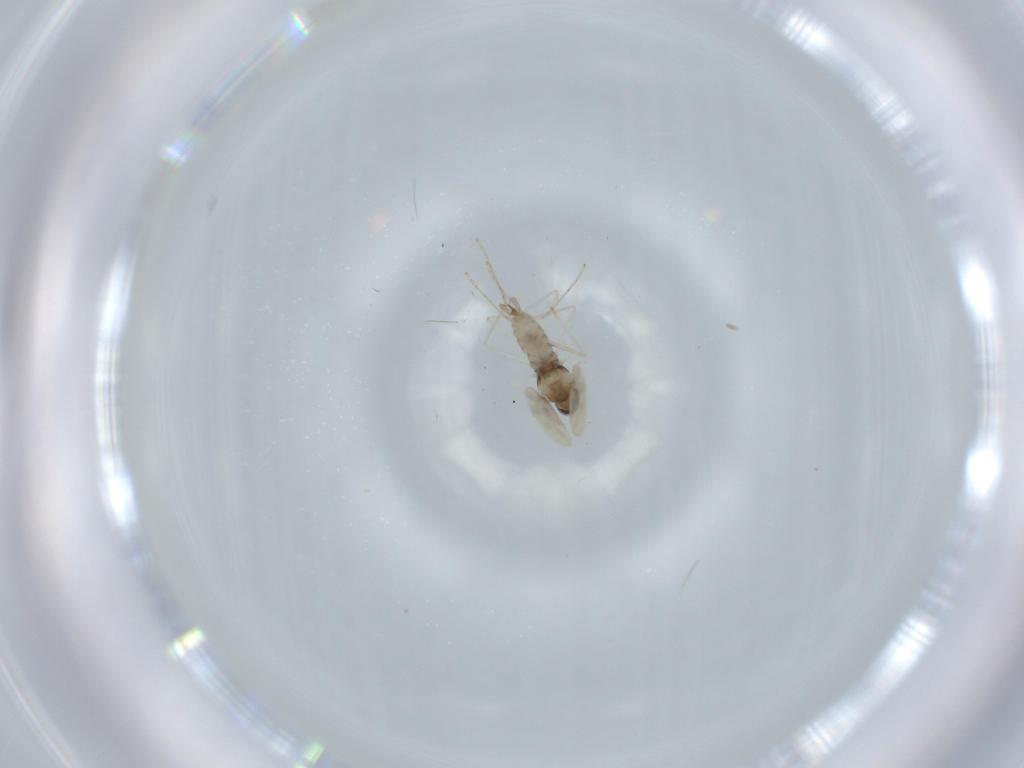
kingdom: Animalia
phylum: Arthropoda
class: Insecta
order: Diptera
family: Cecidomyiidae
